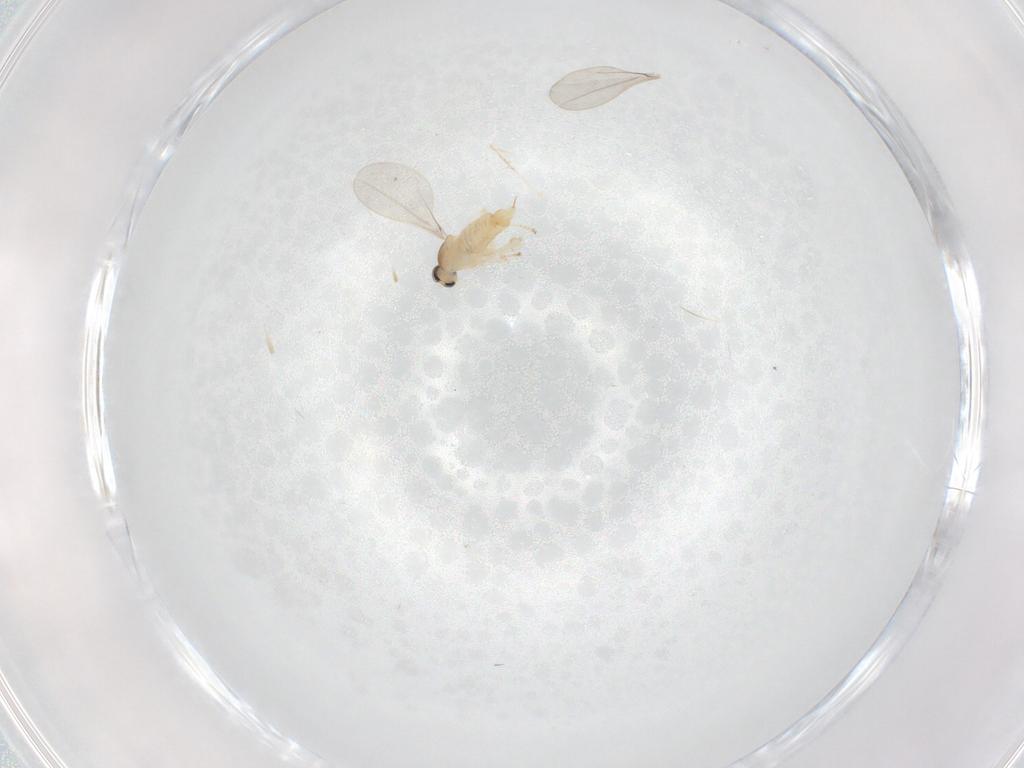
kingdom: Animalia
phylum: Arthropoda
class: Insecta
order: Diptera
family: Cecidomyiidae
